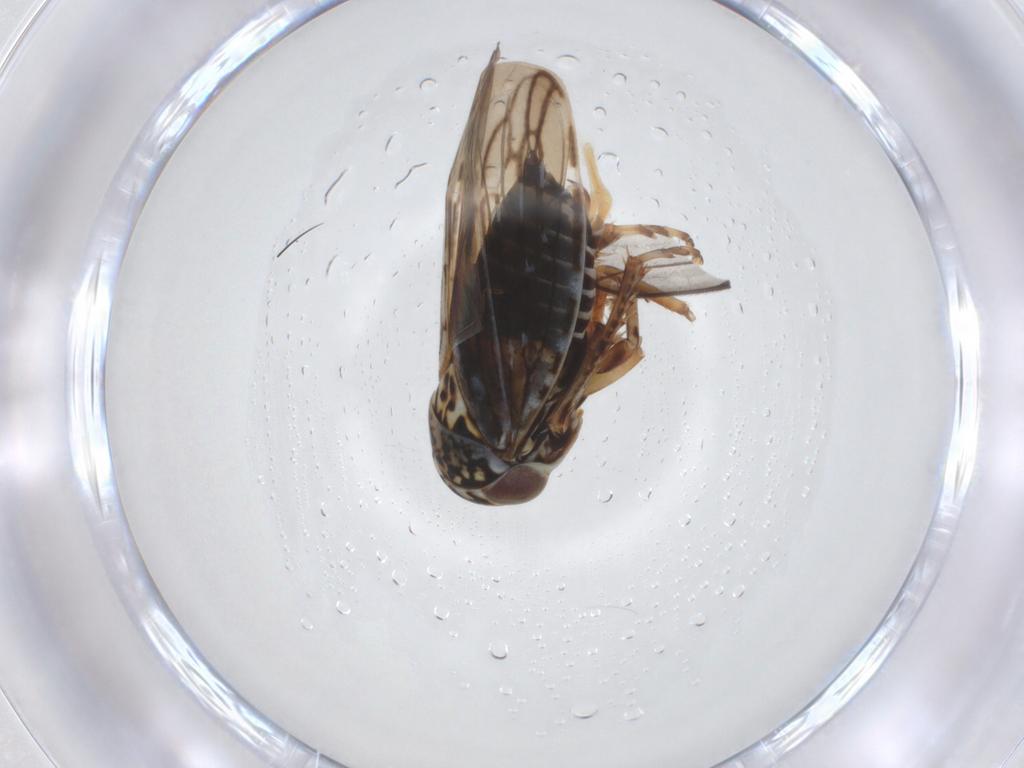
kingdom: Animalia
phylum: Arthropoda
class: Insecta
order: Hemiptera
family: Cicadellidae
